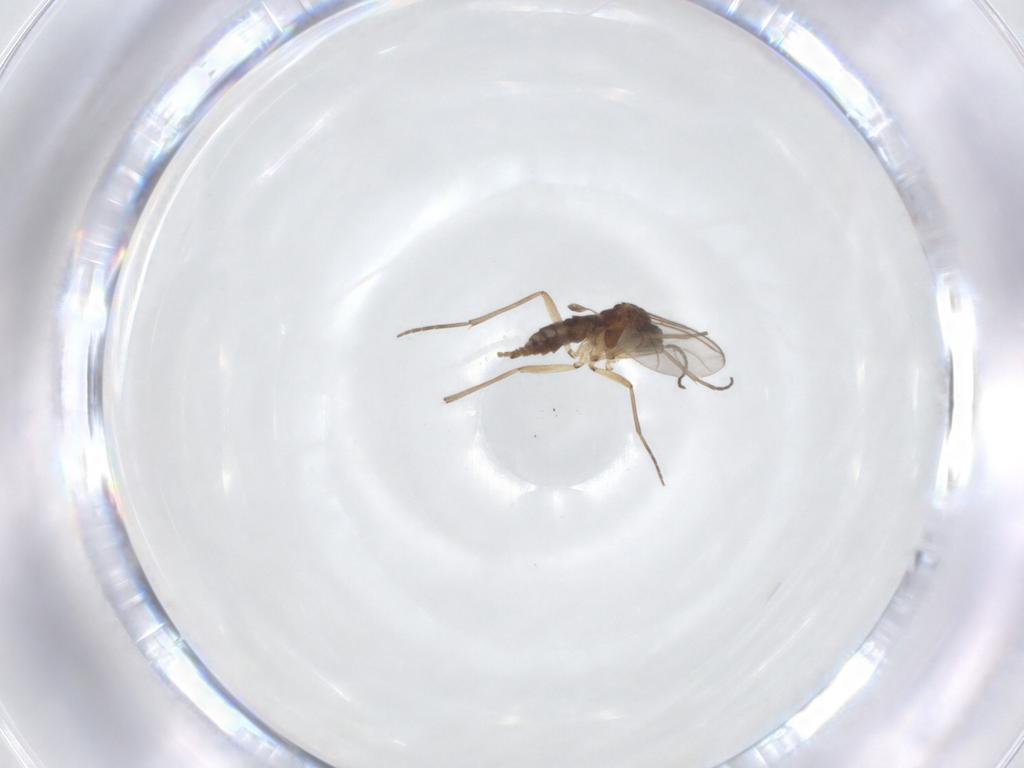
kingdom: Animalia
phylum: Arthropoda
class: Insecta
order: Diptera
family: Sciaridae
